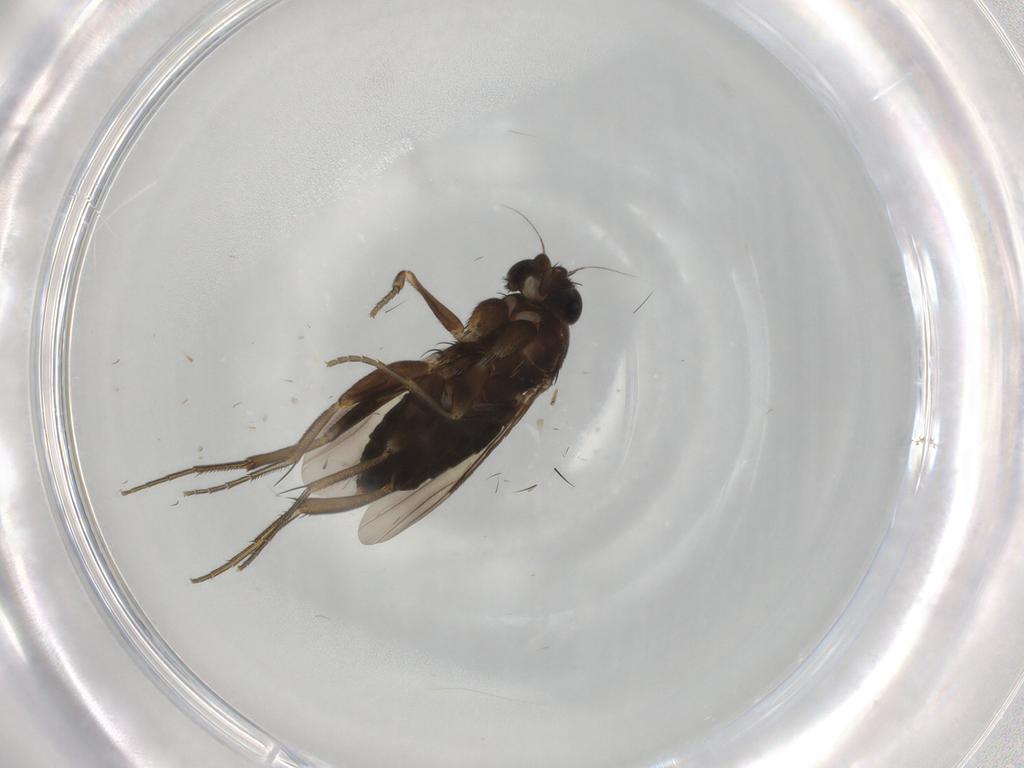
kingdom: Animalia
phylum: Arthropoda
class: Insecta
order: Diptera
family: Phoridae
